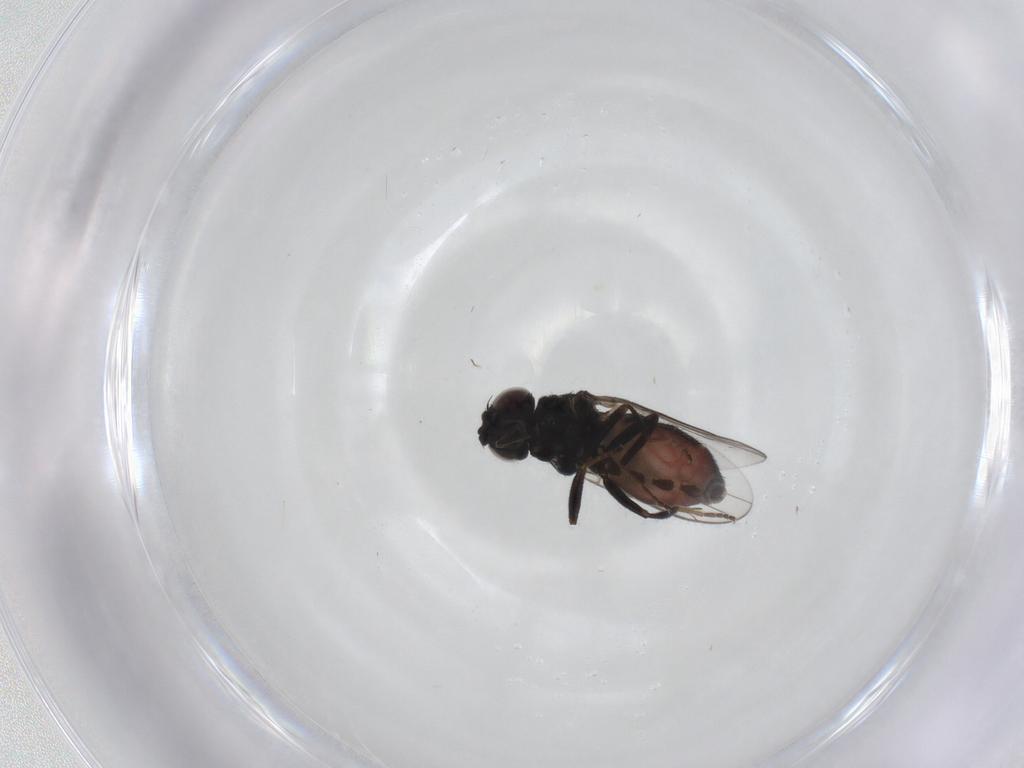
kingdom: Animalia
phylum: Arthropoda
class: Insecta
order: Diptera
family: Chloropidae
